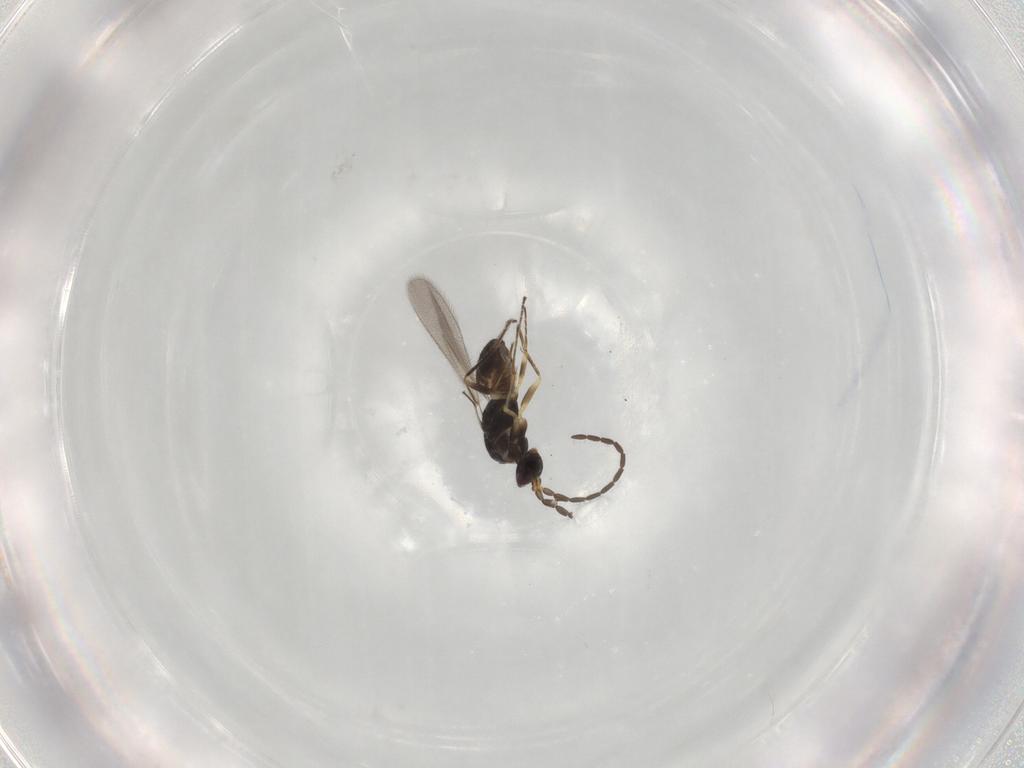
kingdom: Animalia
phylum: Arthropoda
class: Insecta
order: Hymenoptera
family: Mymaridae
